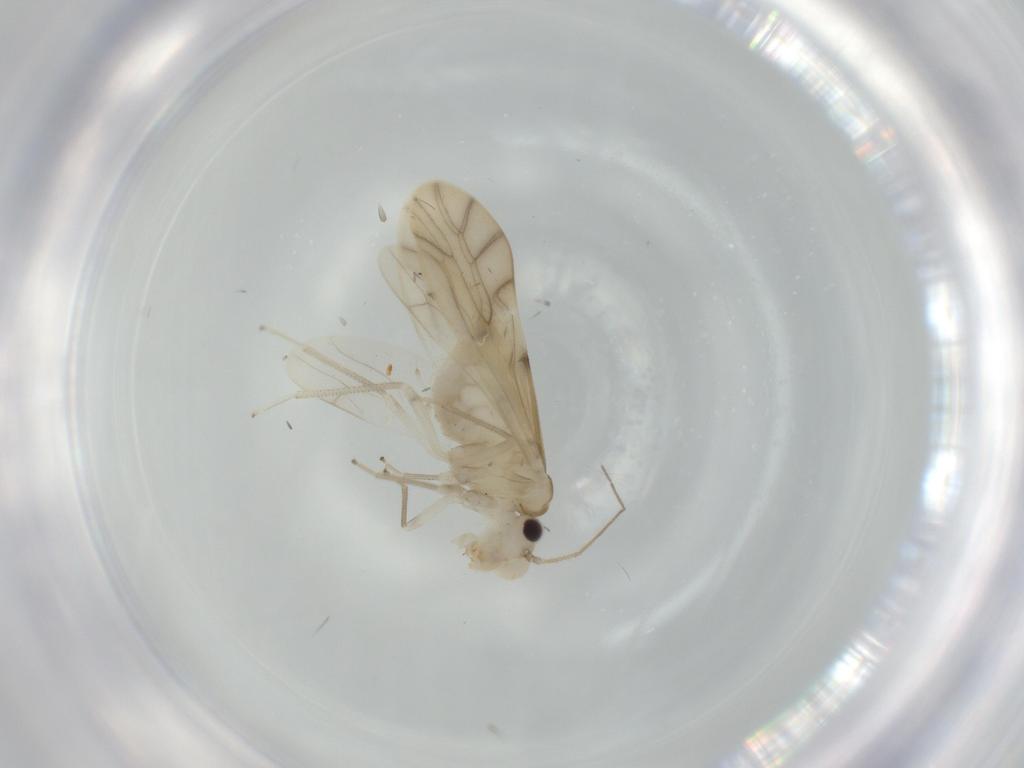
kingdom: Animalia
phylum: Arthropoda
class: Insecta
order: Psocodea
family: Caeciliusidae
